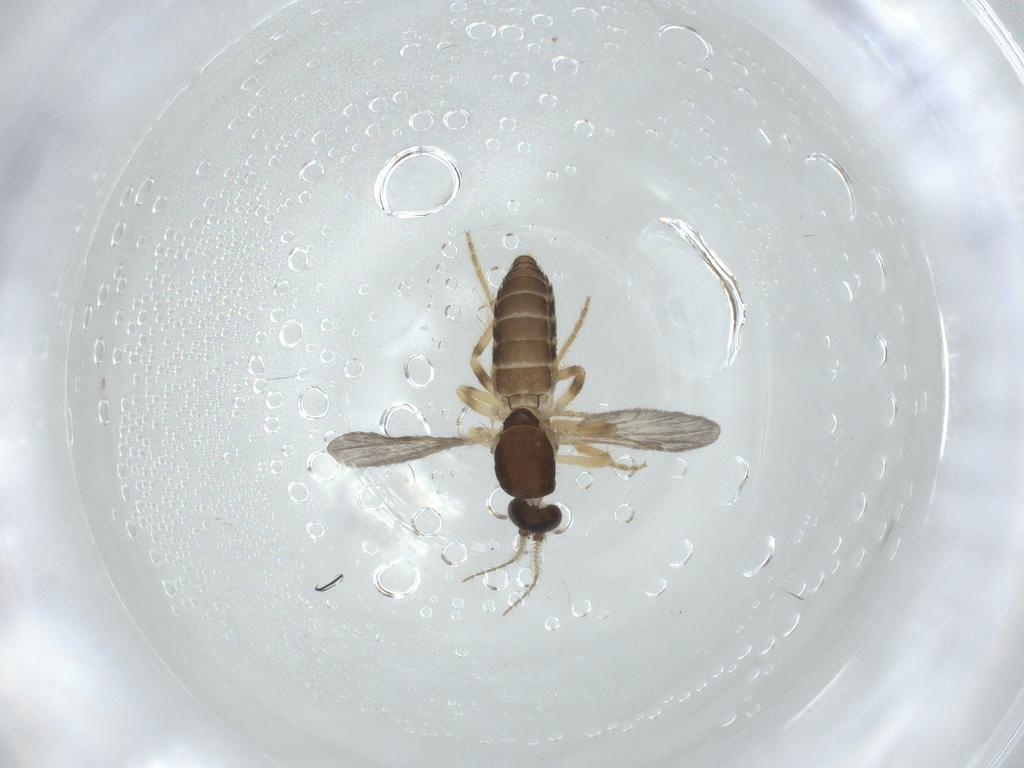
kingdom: Animalia
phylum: Arthropoda
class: Insecta
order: Diptera
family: Ceratopogonidae
